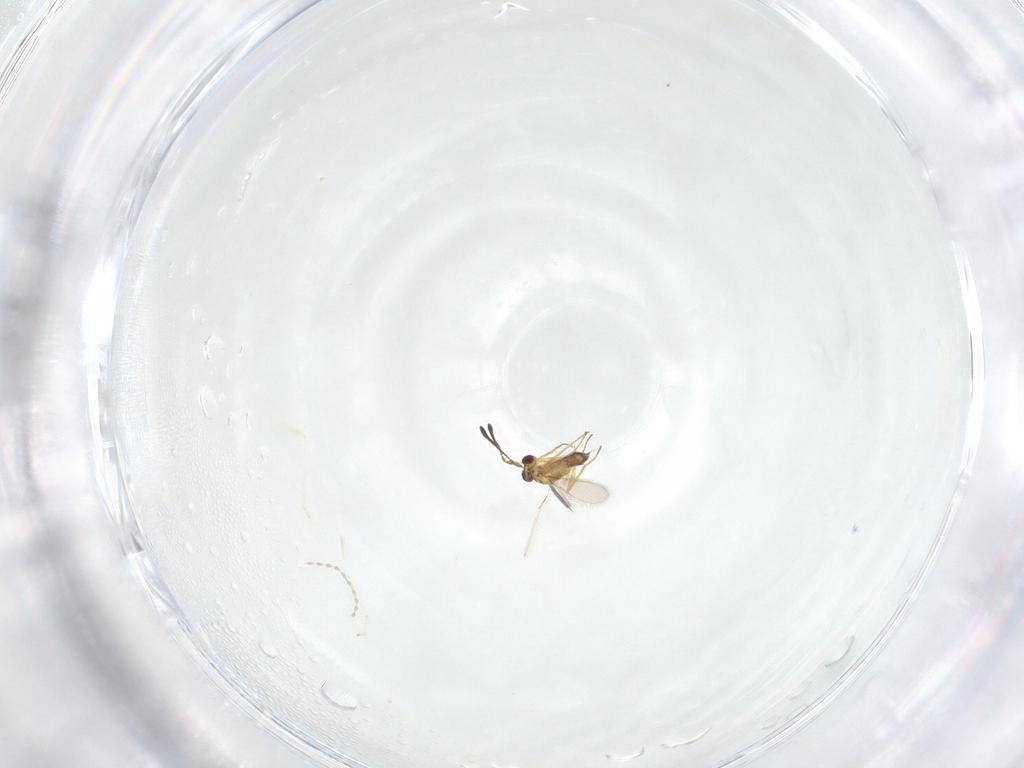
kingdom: Animalia
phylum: Arthropoda
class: Insecta
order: Hymenoptera
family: Mymaridae
